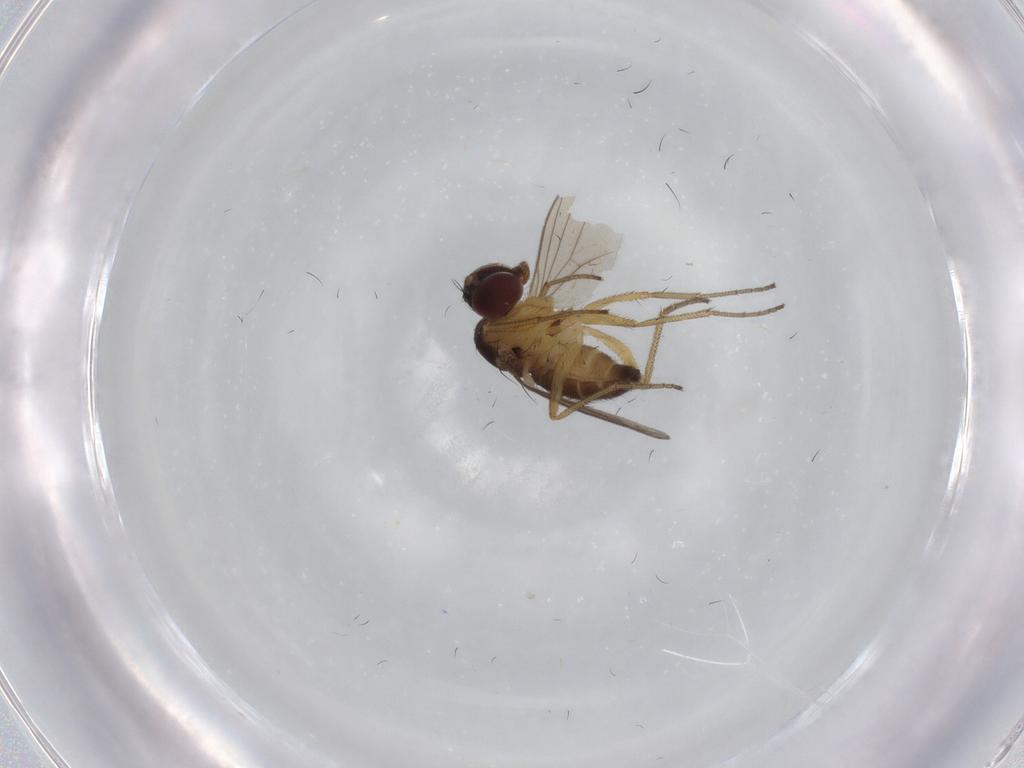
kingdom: Animalia
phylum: Arthropoda
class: Insecta
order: Diptera
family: Dolichopodidae
